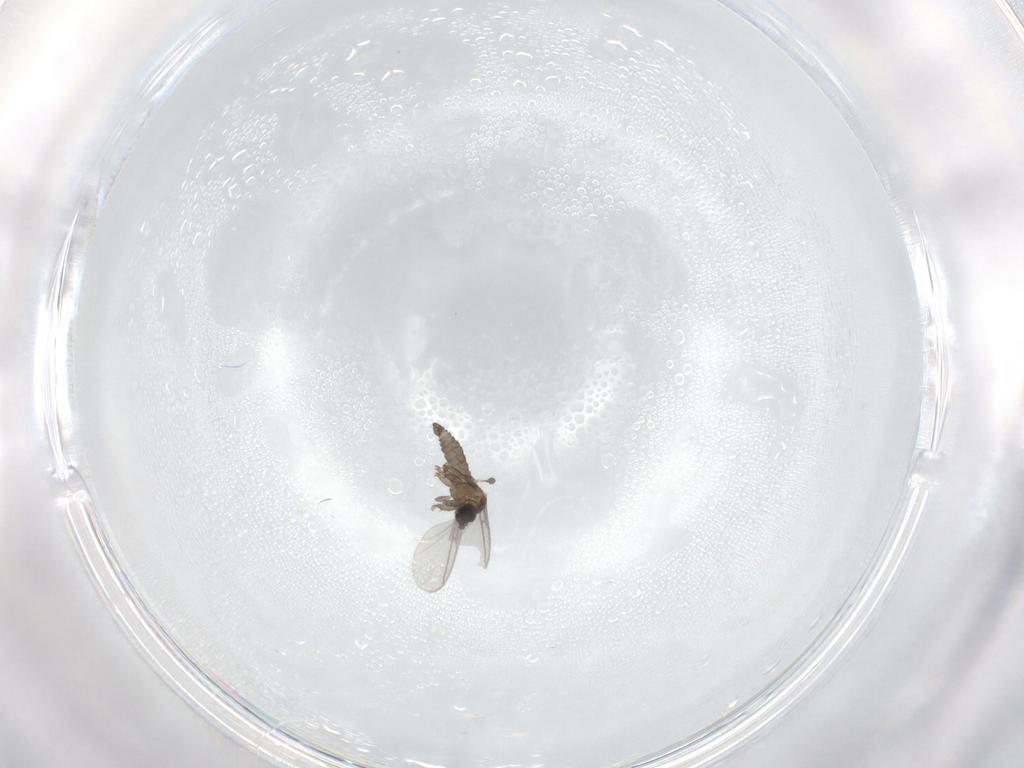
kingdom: Animalia
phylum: Arthropoda
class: Insecta
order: Diptera
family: Sciaridae
